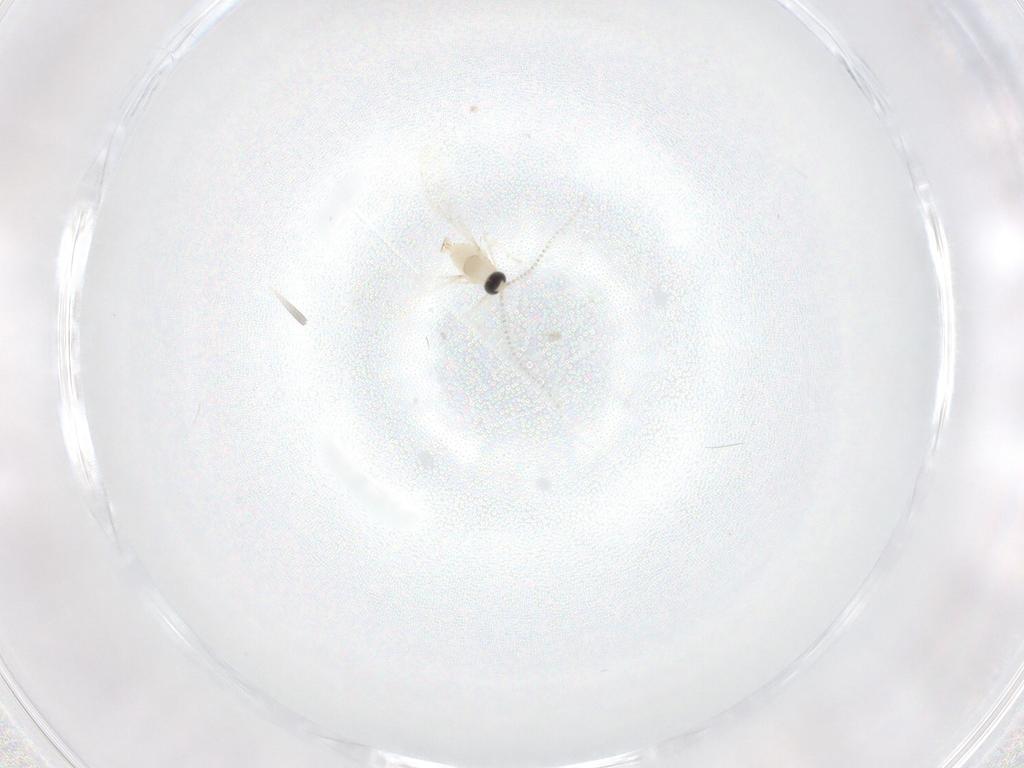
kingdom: Animalia
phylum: Arthropoda
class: Insecta
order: Diptera
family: Cecidomyiidae
